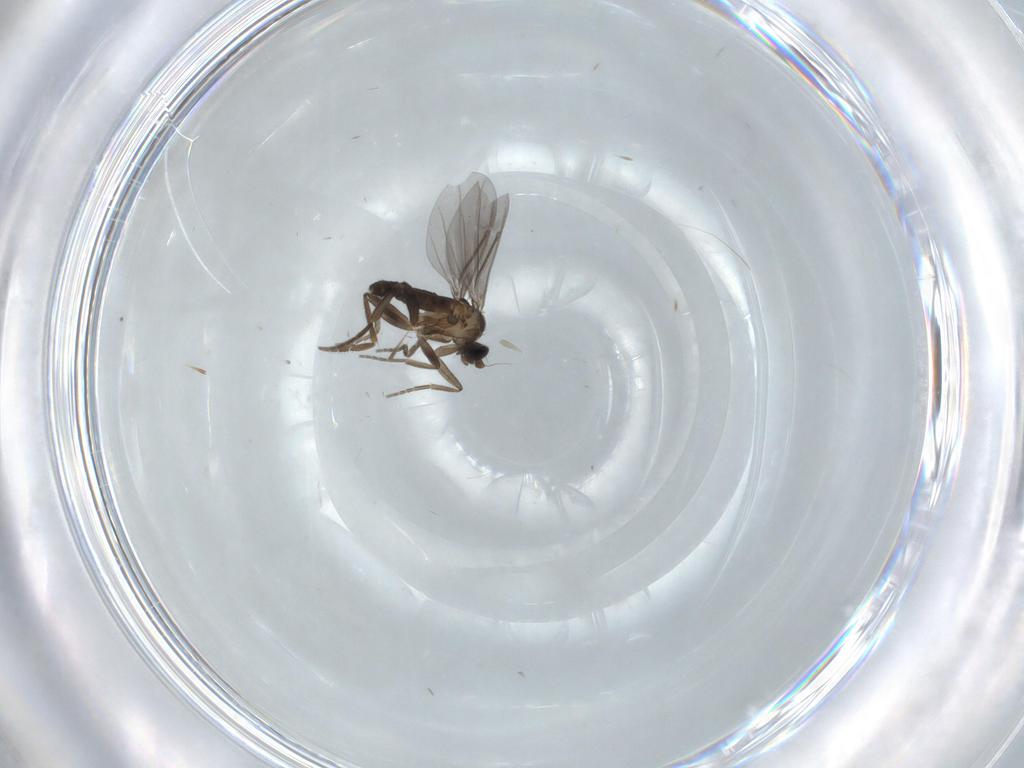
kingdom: Animalia
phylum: Arthropoda
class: Insecta
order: Diptera
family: Phoridae
